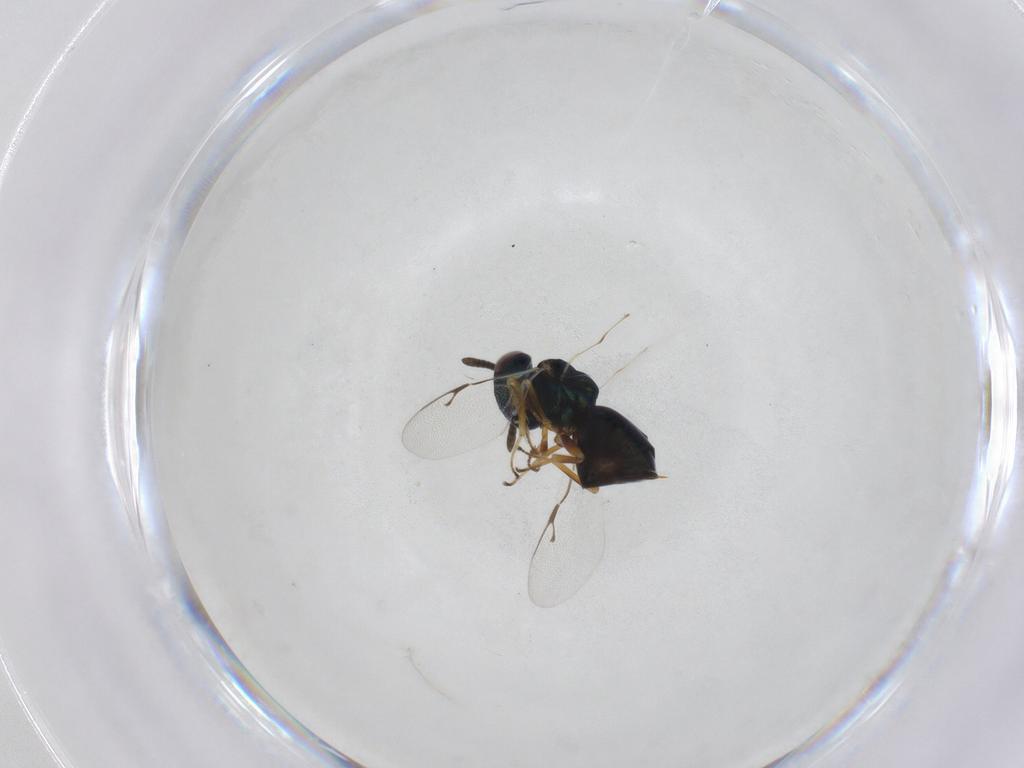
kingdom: Animalia
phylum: Arthropoda
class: Insecta
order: Hymenoptera
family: Pteromalidae
